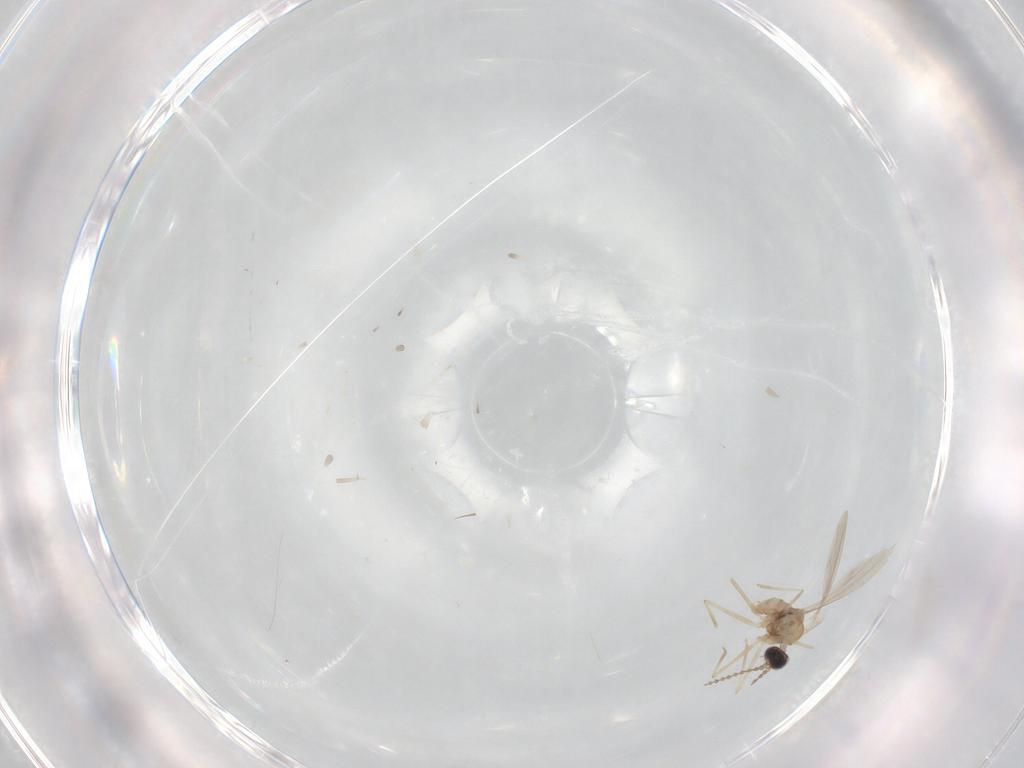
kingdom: Animalia
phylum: Arthropoda
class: Insecta
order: Diptera
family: Cecidomyiidae
